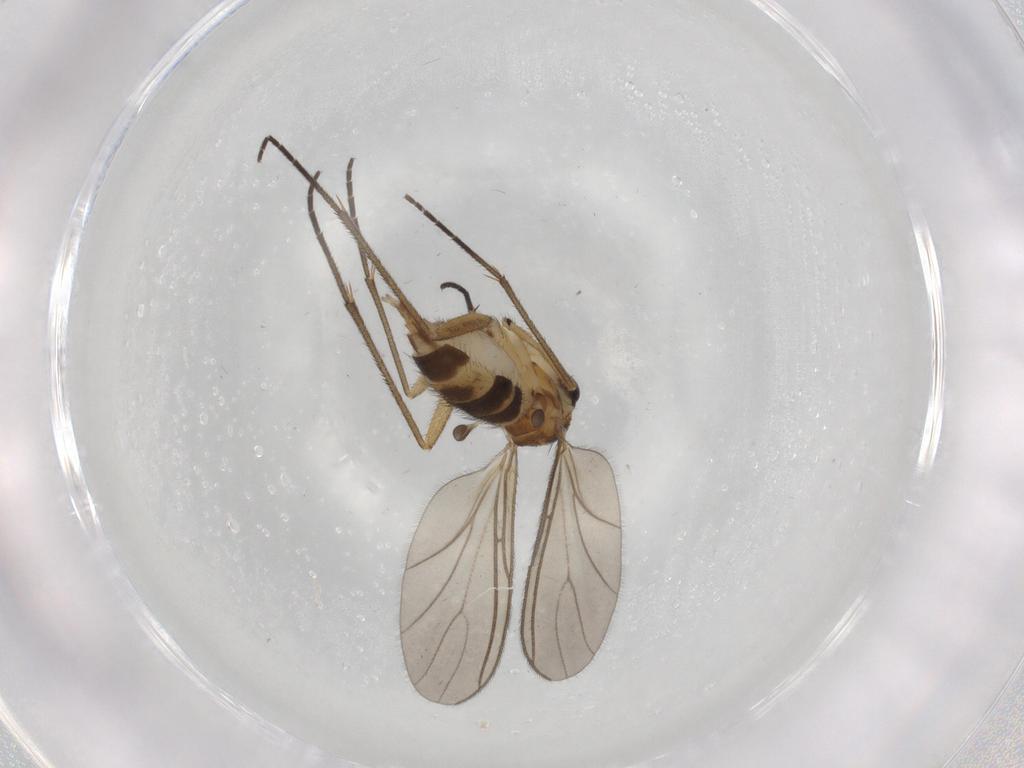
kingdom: Animalia
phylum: Arthropoda
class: Insecta
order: Diptera
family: Sciaridae
